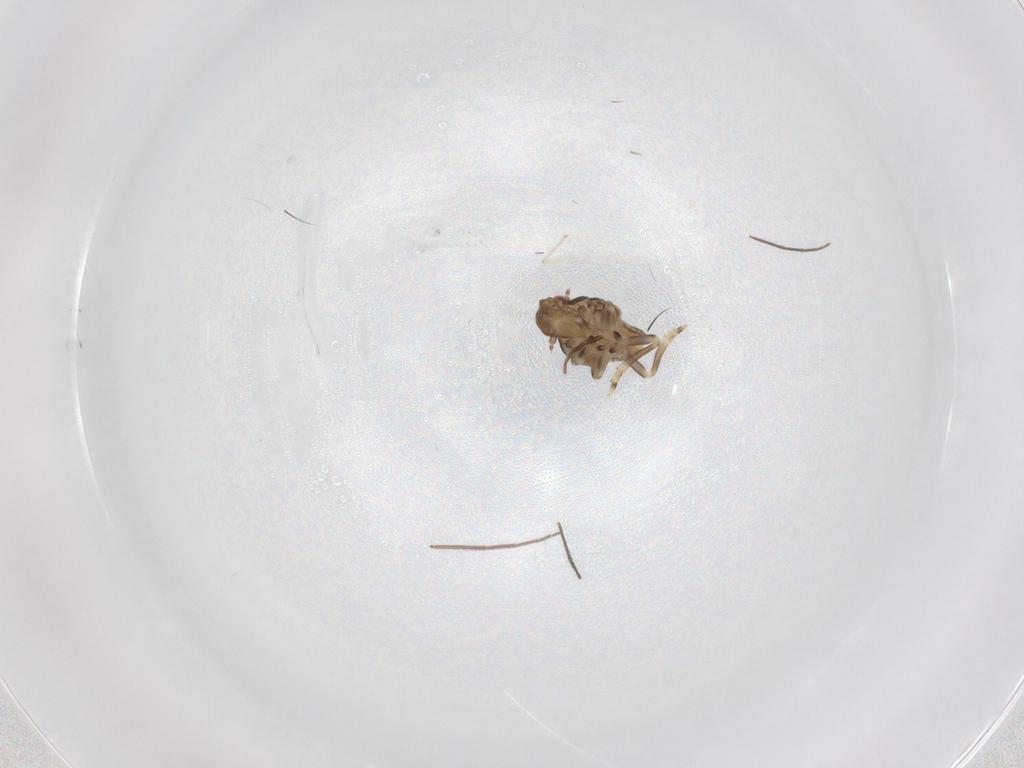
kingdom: Animalia
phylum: Arthropoda
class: Insecta
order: Hemiptera
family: Flatidae
